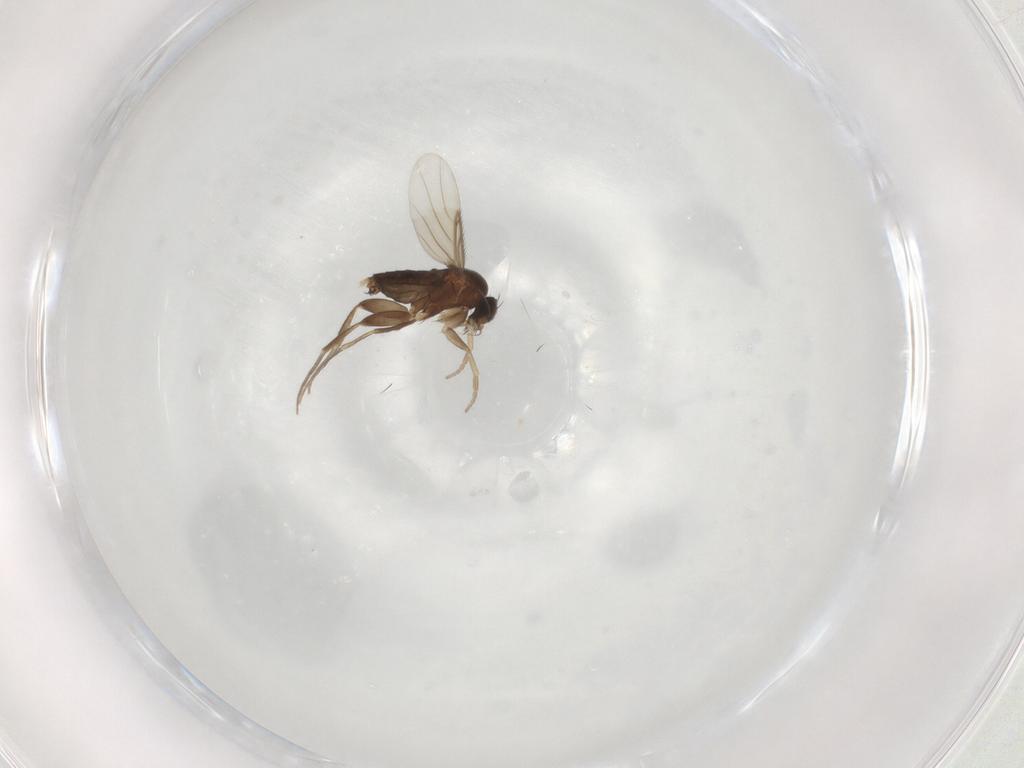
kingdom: Animalia
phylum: Arthropoda
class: Insecta
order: Diptera
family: Phoridae
